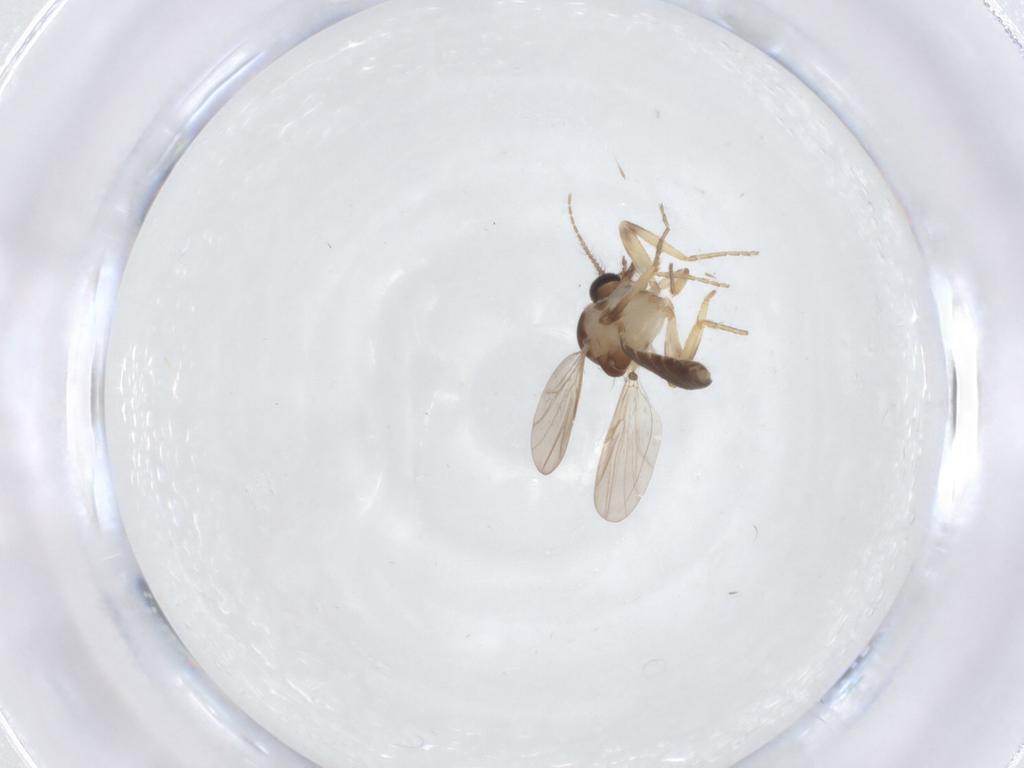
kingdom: Animalia
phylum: Arthropoda
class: Insecta
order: Diptera
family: Ceratopogonidae
